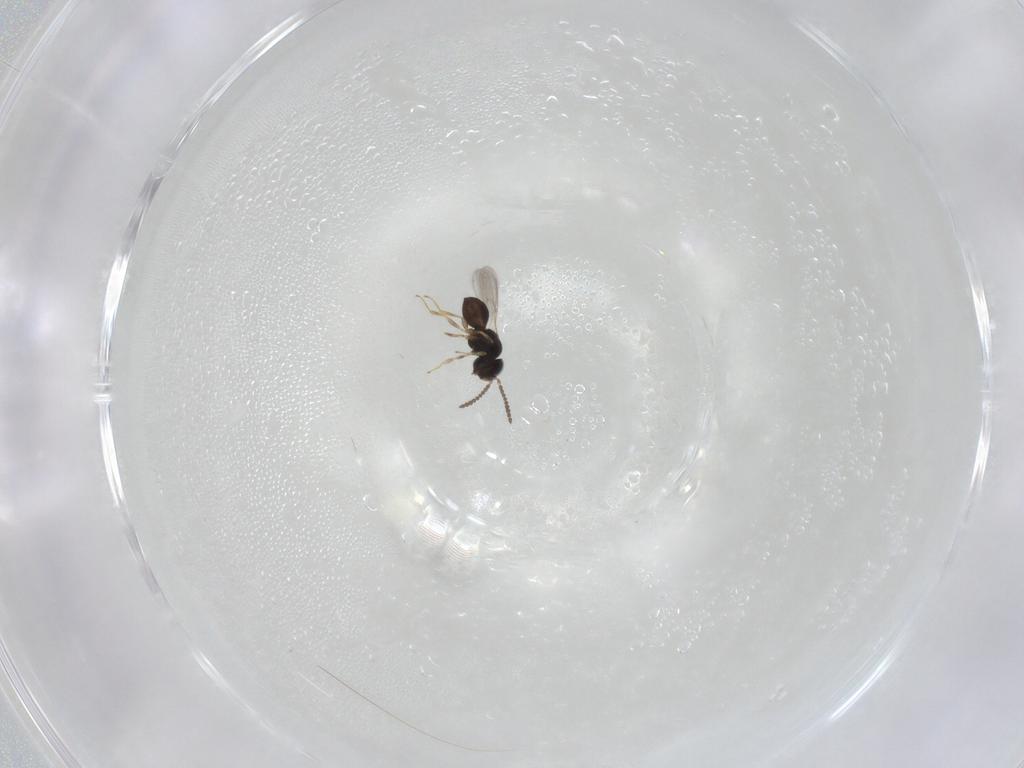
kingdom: Animalia
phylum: Arthropoda
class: Insecta
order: Hymenoptera
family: Scelionidae
